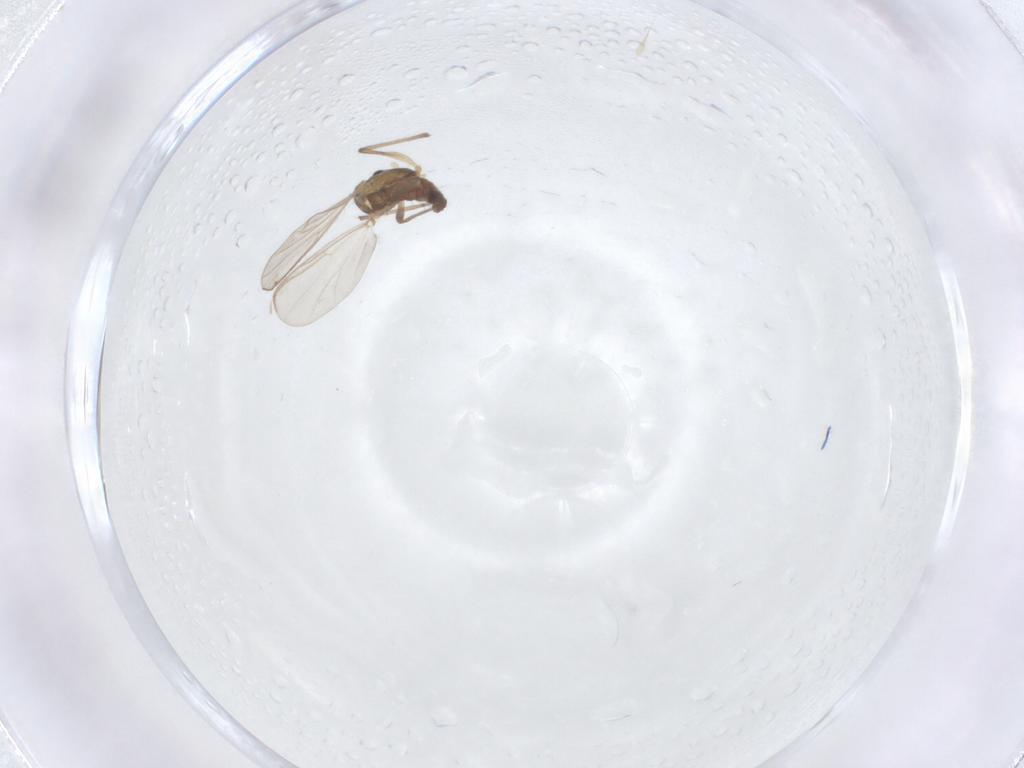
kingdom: Animalia
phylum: Arthropoda
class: Insecta
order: Diptera
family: Chironomidae
